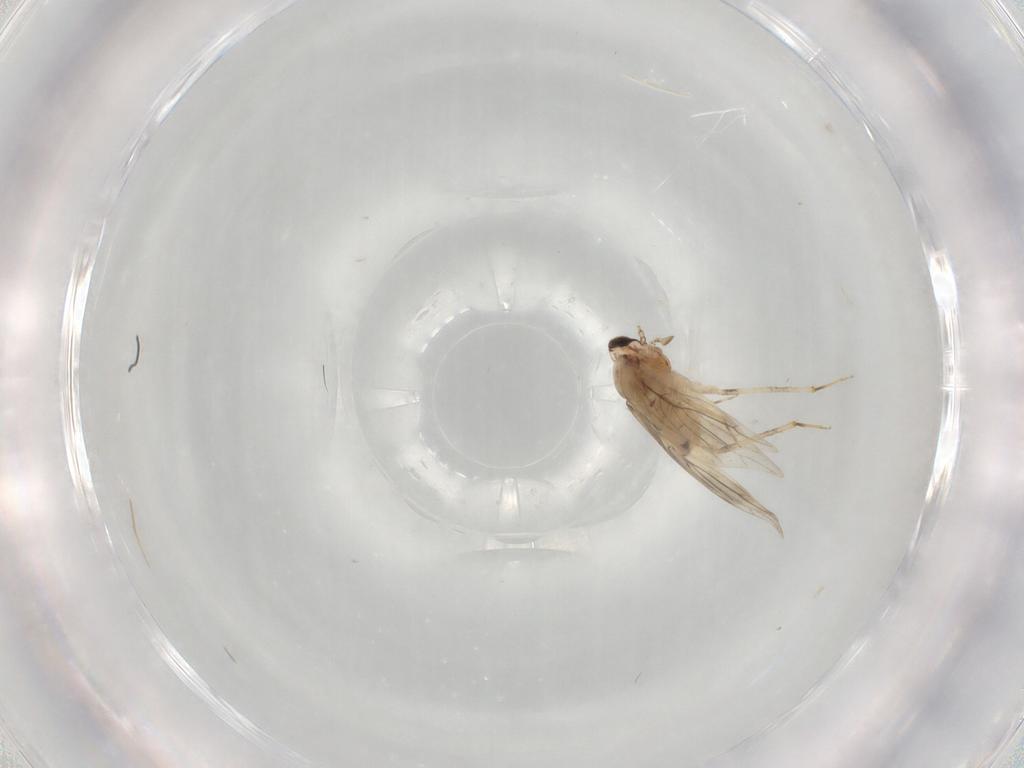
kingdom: Animalia
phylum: Arthropoda
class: Insecta
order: Psocodea
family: Lepidopsocidae
